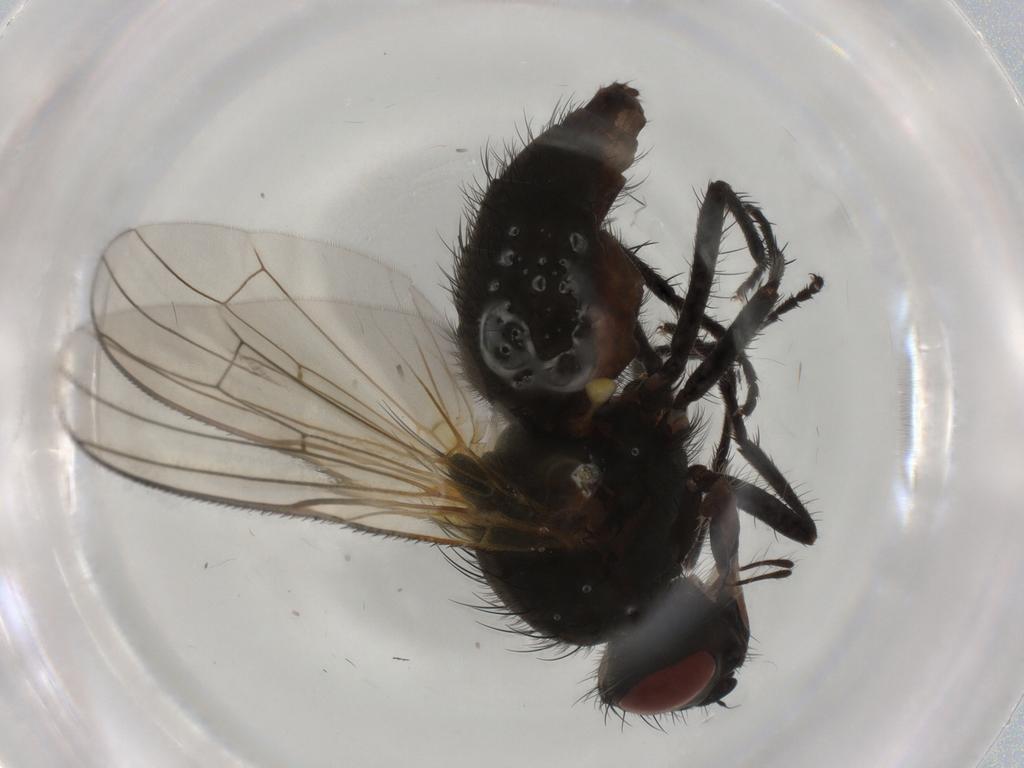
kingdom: Animalia
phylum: Arthropoda
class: Insecta
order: Diptera
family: Anthomyiidae
